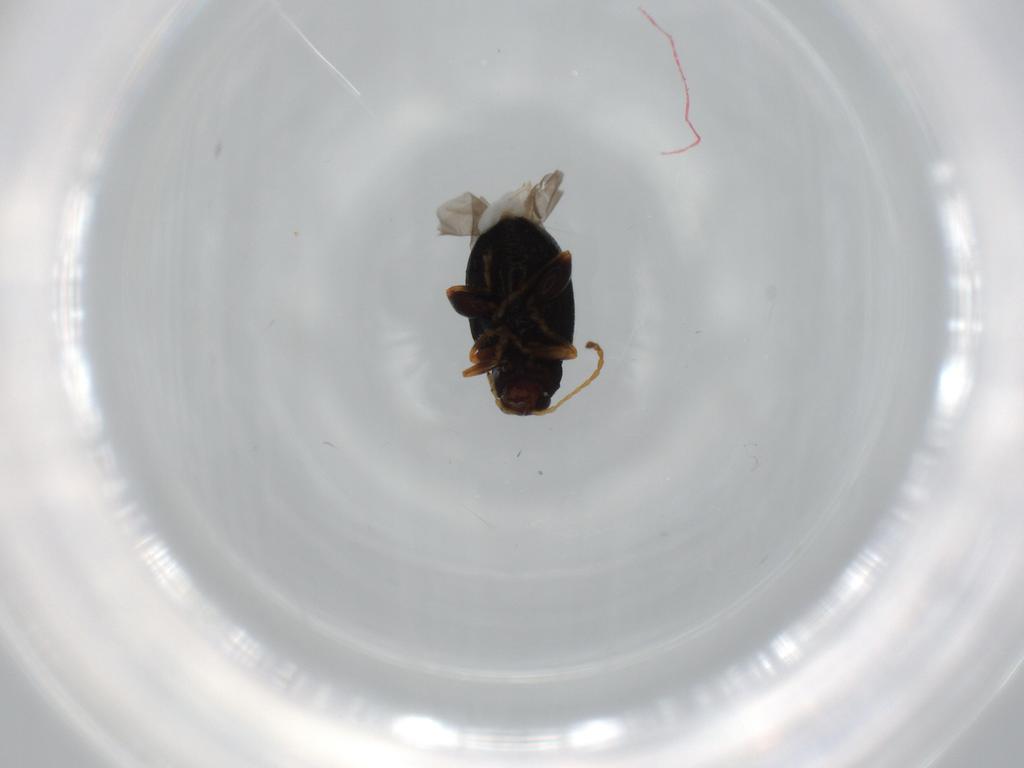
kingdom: Animalia
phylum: Arthropoda
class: Insecta
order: Coleoptera
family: Chrysomelidae
